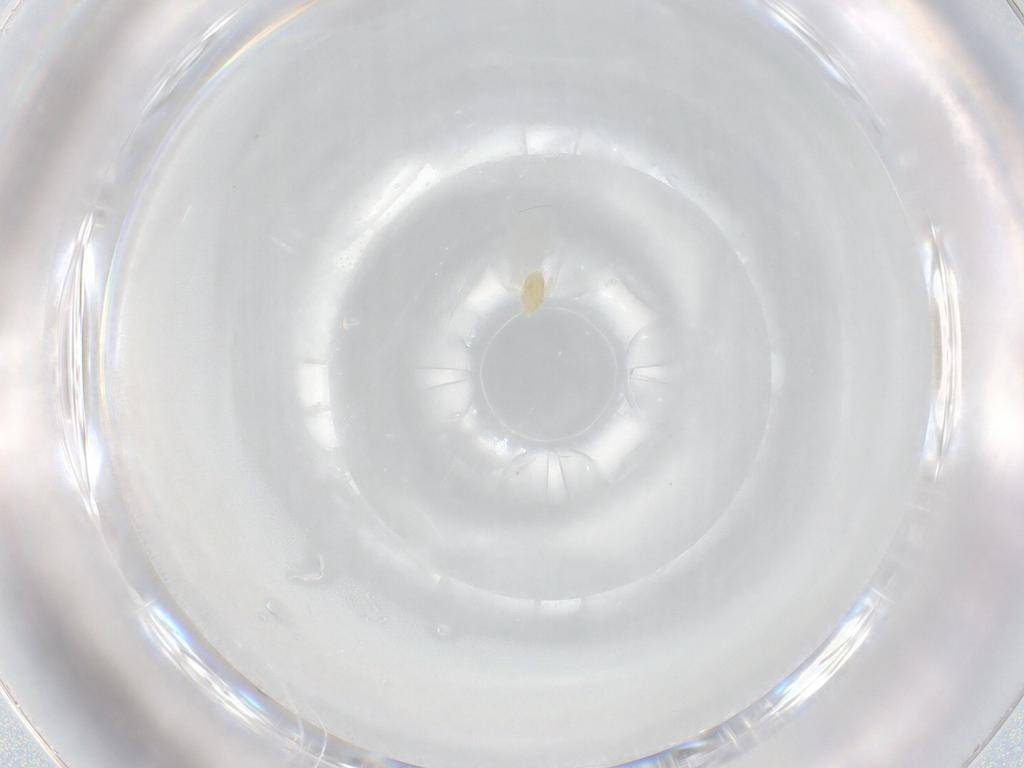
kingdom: Animalia
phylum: Arthropoda
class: Arachnida
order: Trombidiformes
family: Eupodidae
